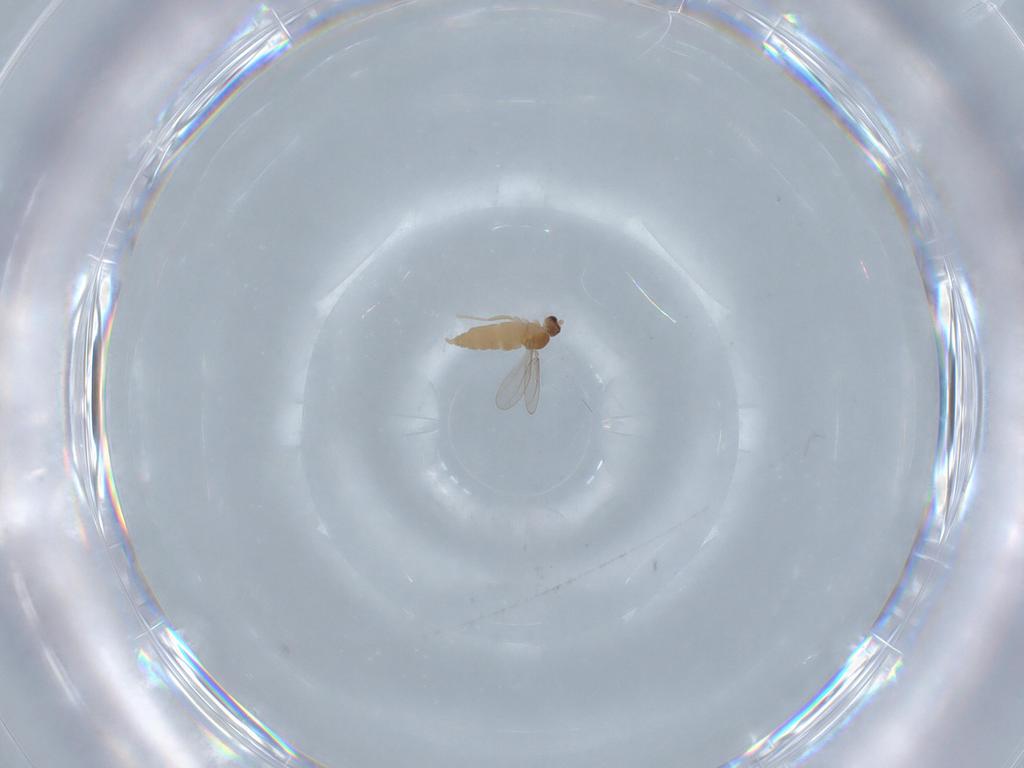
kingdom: Animalia
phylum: Arthropoda
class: Insecta
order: Diptera
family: Cecidomyiidae
